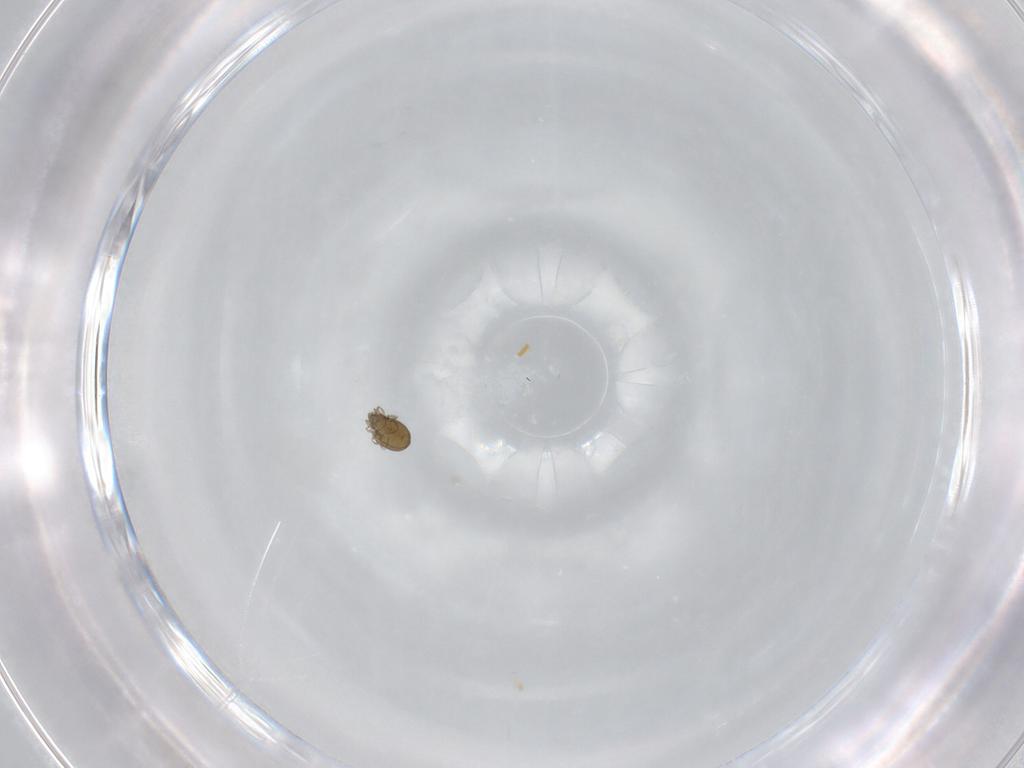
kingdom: Animalia
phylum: Arthropoda
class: Arachnida
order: Sarcoptiformes
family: Oribatulidae
